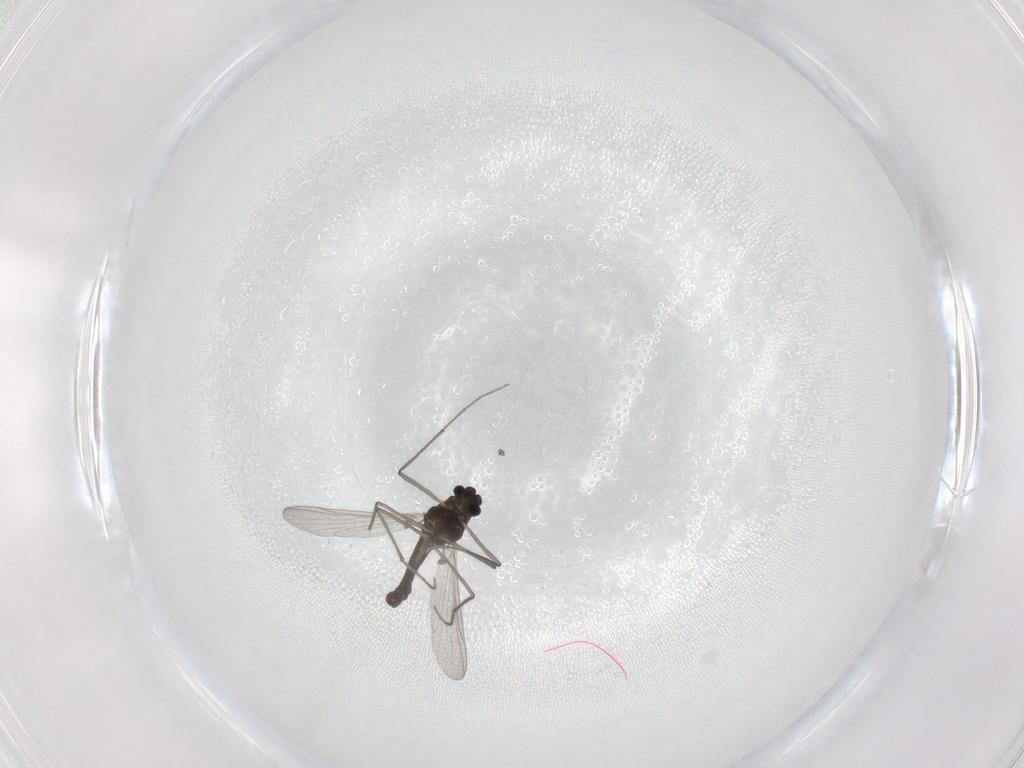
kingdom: Animalia
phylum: Arthropoda
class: Insecta
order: Diptera
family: Chironomidae
